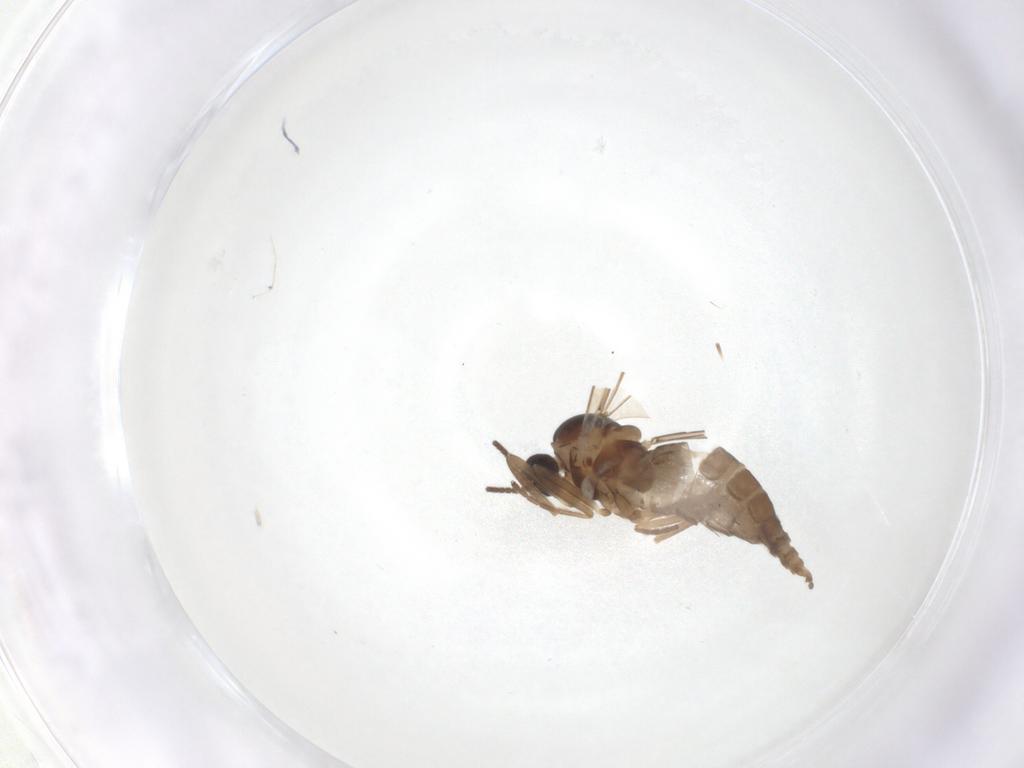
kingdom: Animalia
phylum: Arthropoda
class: Insecta
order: Diptera
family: Cecidomyiidae
